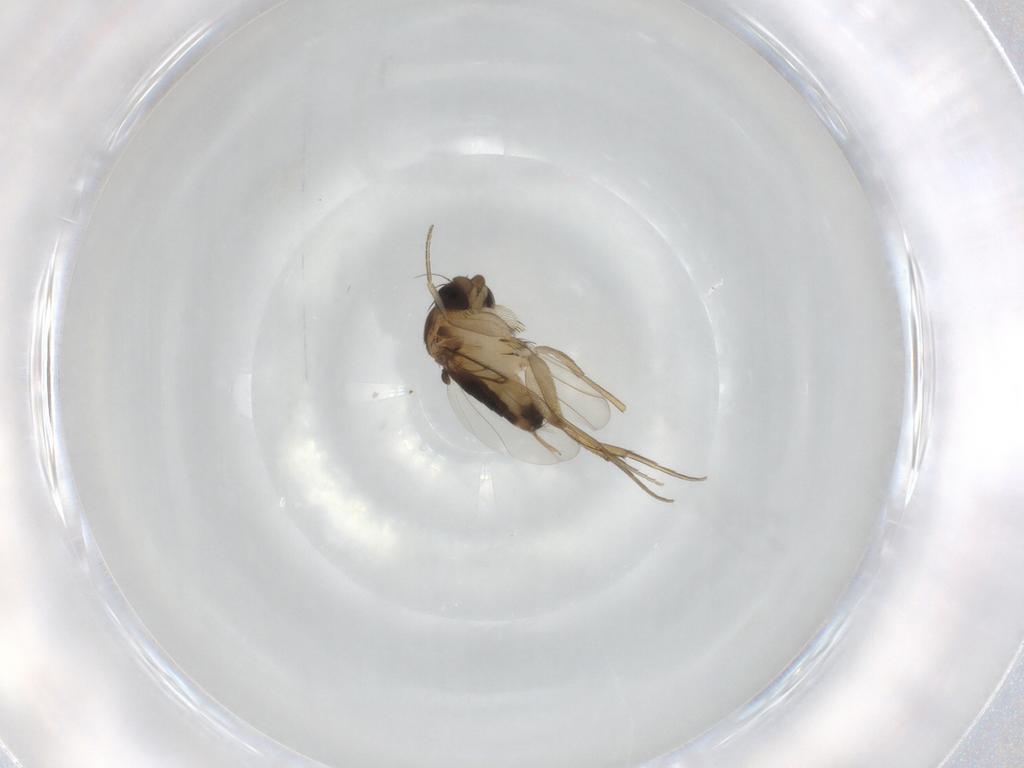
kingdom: Animalia
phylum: Arthropoda
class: Insecta
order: Diptera
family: Phoridae
